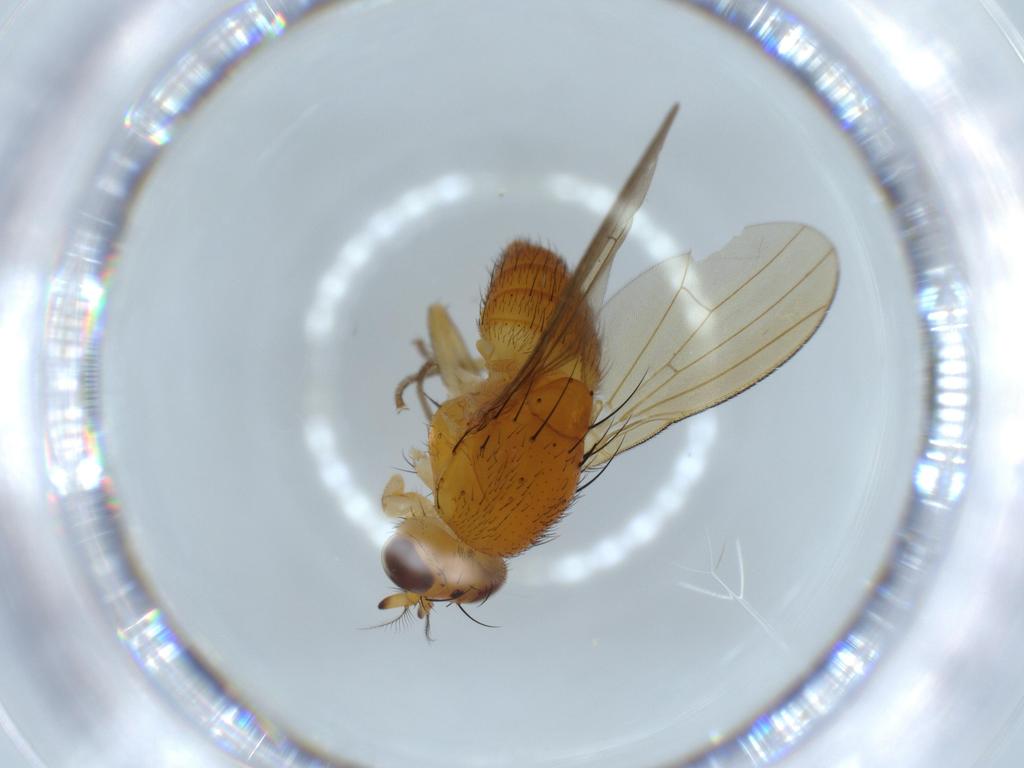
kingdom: Animalia
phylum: Arthropoda
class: Insecta
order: Diptera
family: Lauxaniidae
